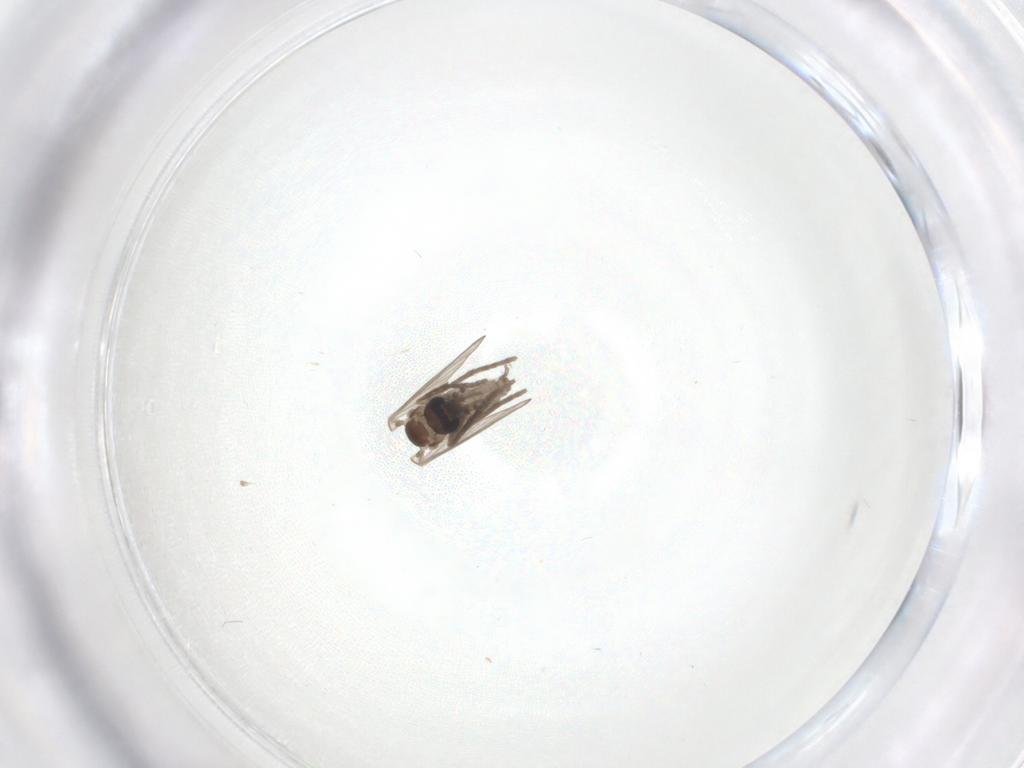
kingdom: Animalia
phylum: Arthropoda
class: Insecta
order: Diptera
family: Psychodidae
